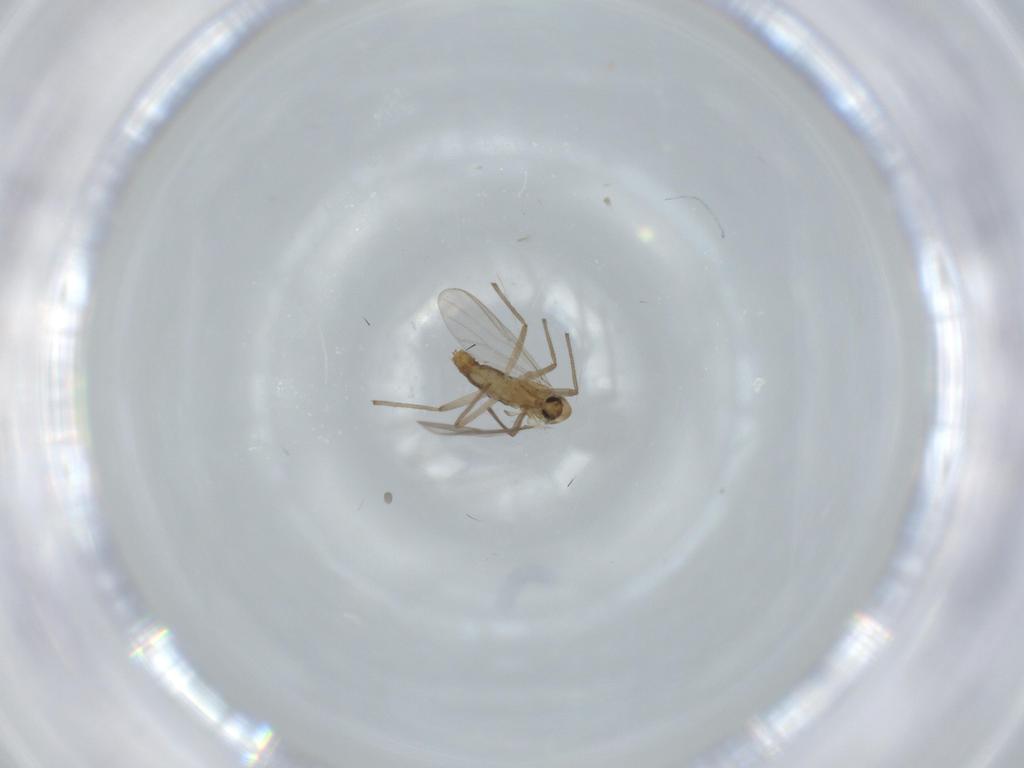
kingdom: Animalia
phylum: Arthropoda
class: Insecta
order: Diptera
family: Chironomidae
